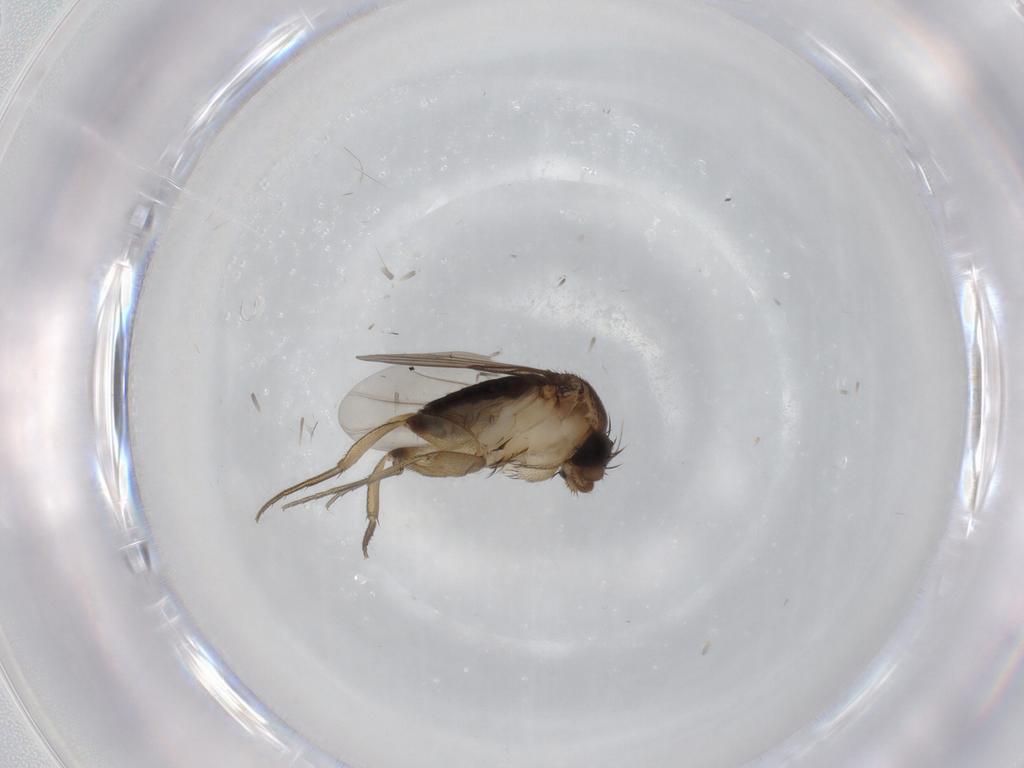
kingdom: Animalia
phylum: Arthropoda
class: Insecta
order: Diptera
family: Phoridae
